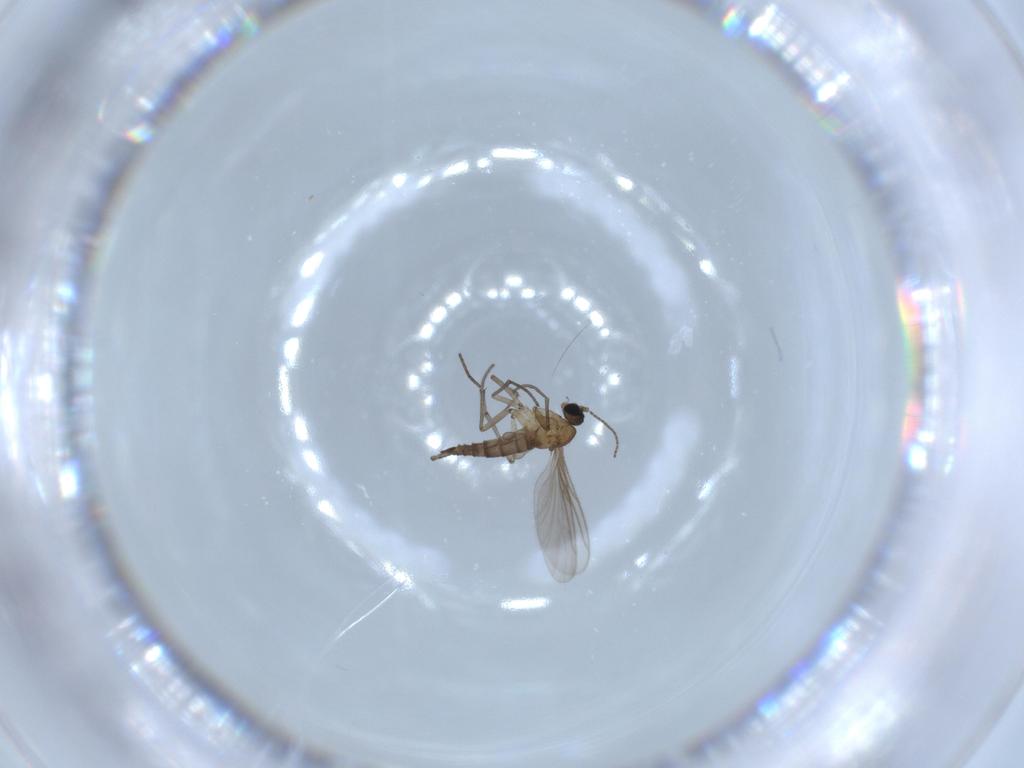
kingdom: Animalia
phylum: Arthropoda
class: Insecta
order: Diptera
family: Sciaridae
